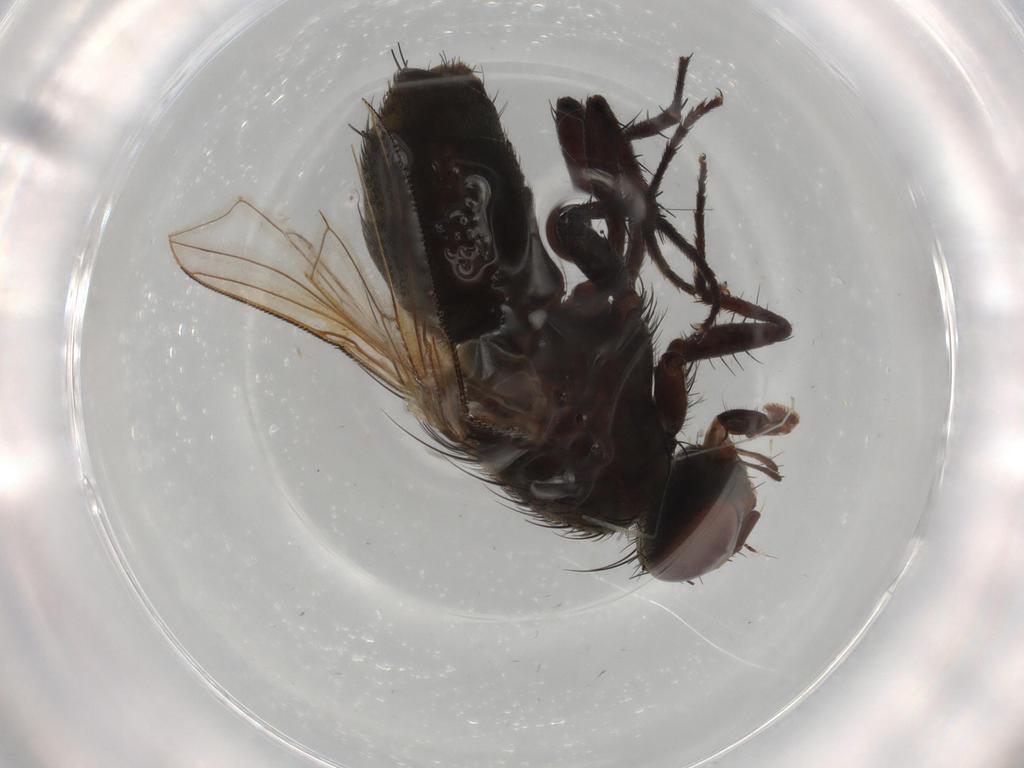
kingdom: Animalia
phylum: Arthropoda
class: Insecta
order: Diptera
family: Sarcophagidae
